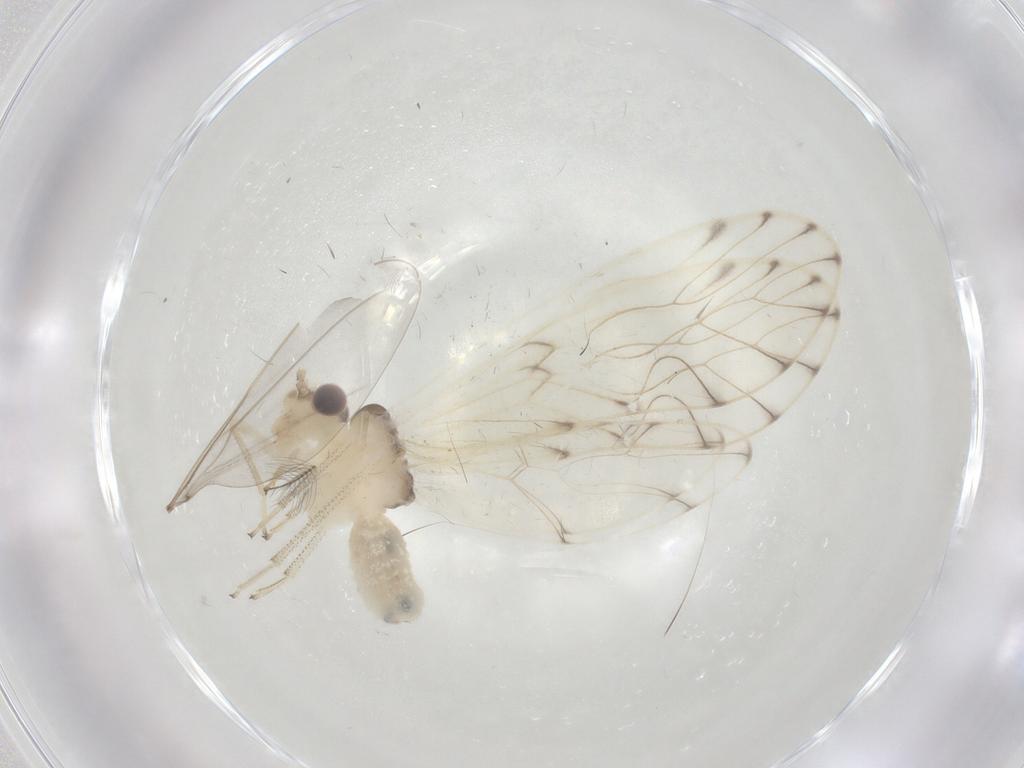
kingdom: Animalia
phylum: Arthropoda
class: Insecta
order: Psocodea
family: Philotarsidae
